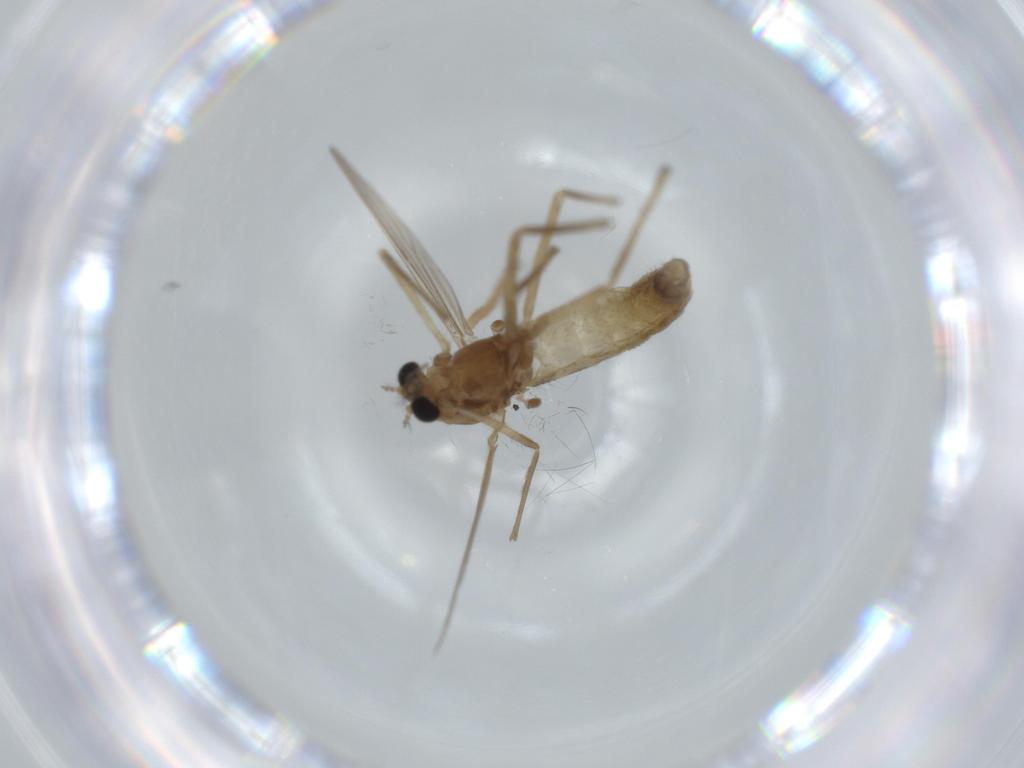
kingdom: Animalia
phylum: Arthropoda
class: Insecta
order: Diptera
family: Chironomidae
